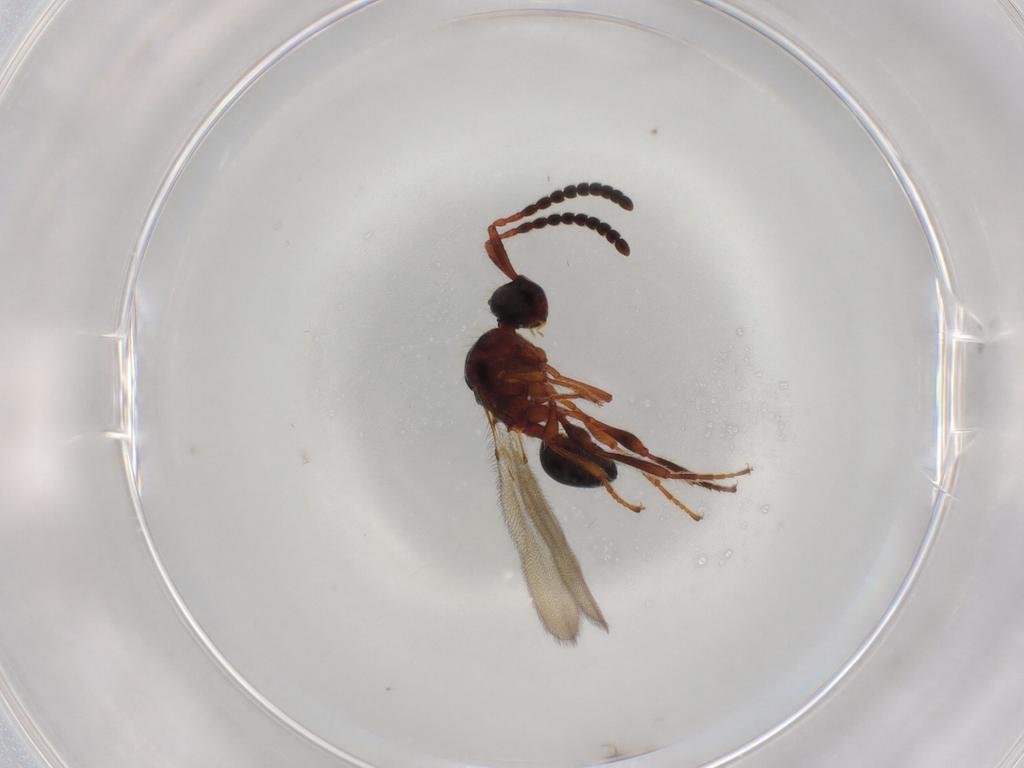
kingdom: Animalia
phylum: Arthropoda
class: Insecta
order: Hymenoptera
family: Diapriidae
